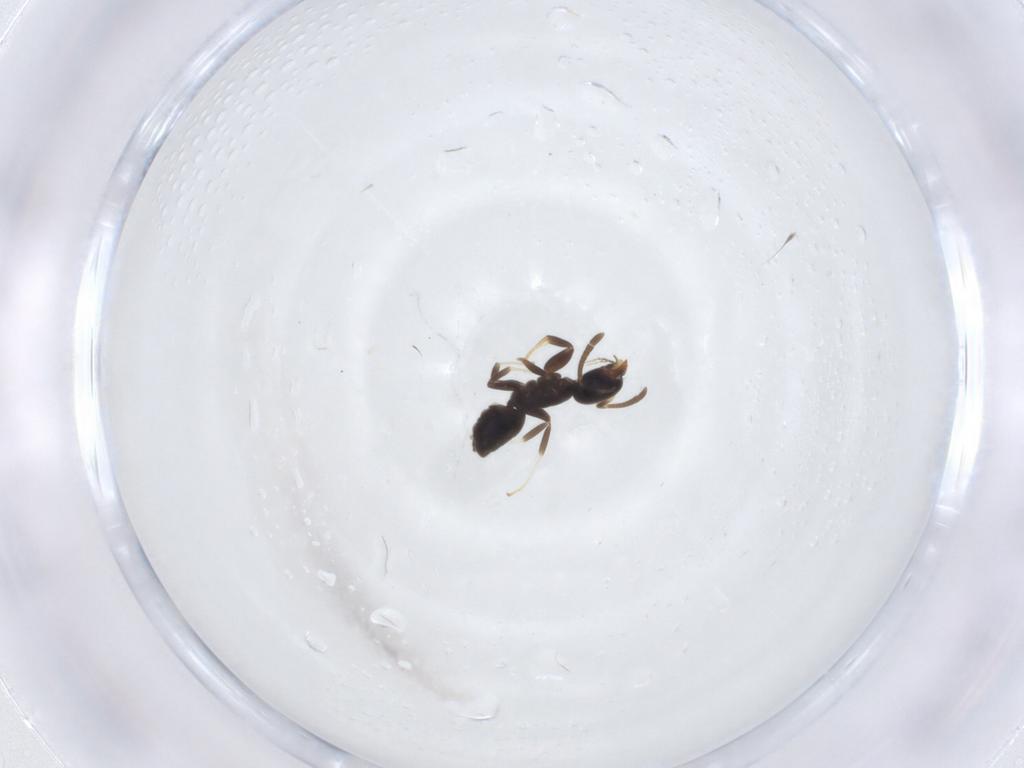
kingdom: Animalia
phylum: Arthropoda
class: Insecta
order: Hymenoptera
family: Formicidae
